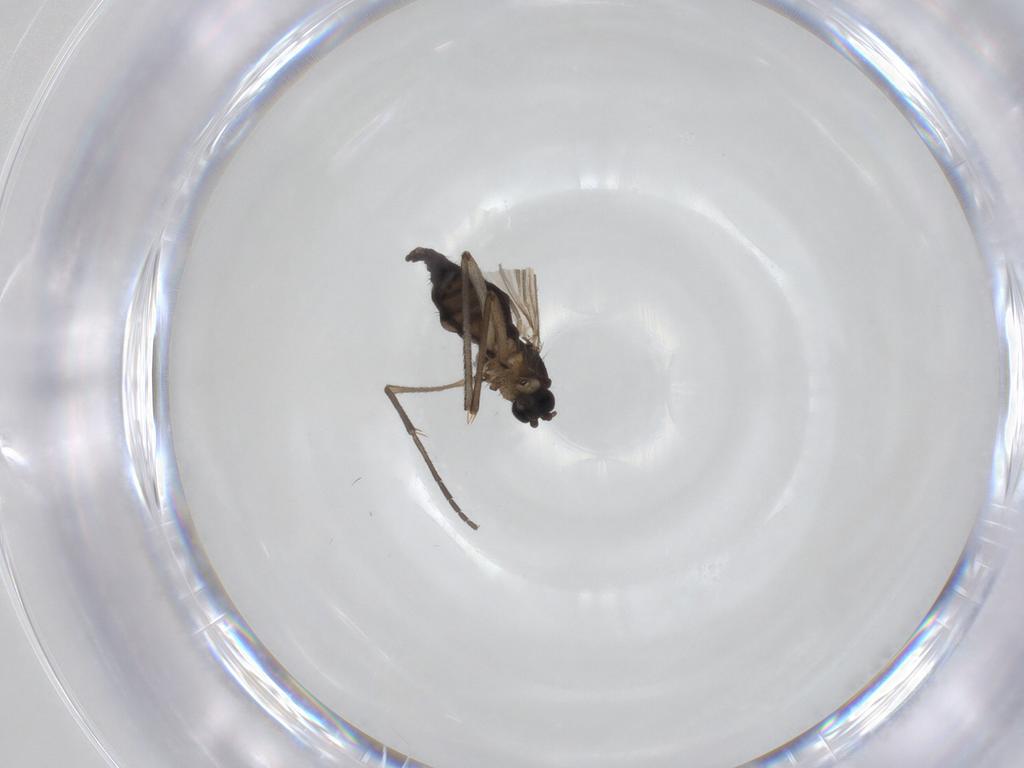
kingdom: Animalia
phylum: Arthropoda
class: Insecta
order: Diptera
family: Sciaridae
